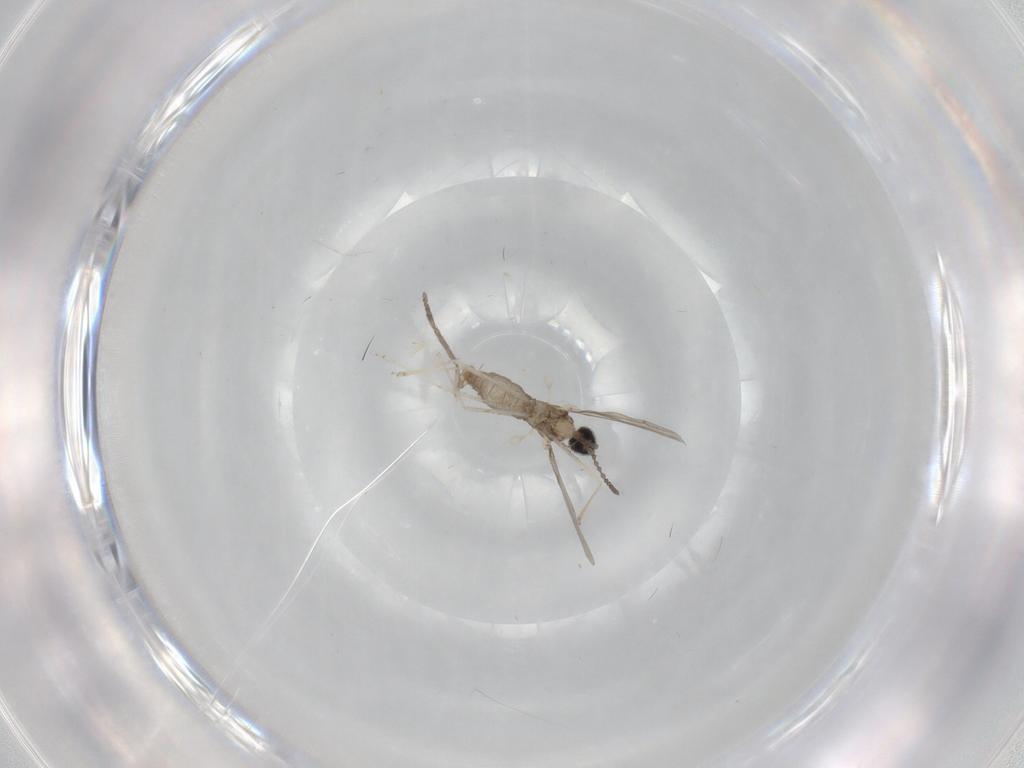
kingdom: Animalia
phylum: Arthropoda
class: Insecta
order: Diptera
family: Cecidomyiidae
